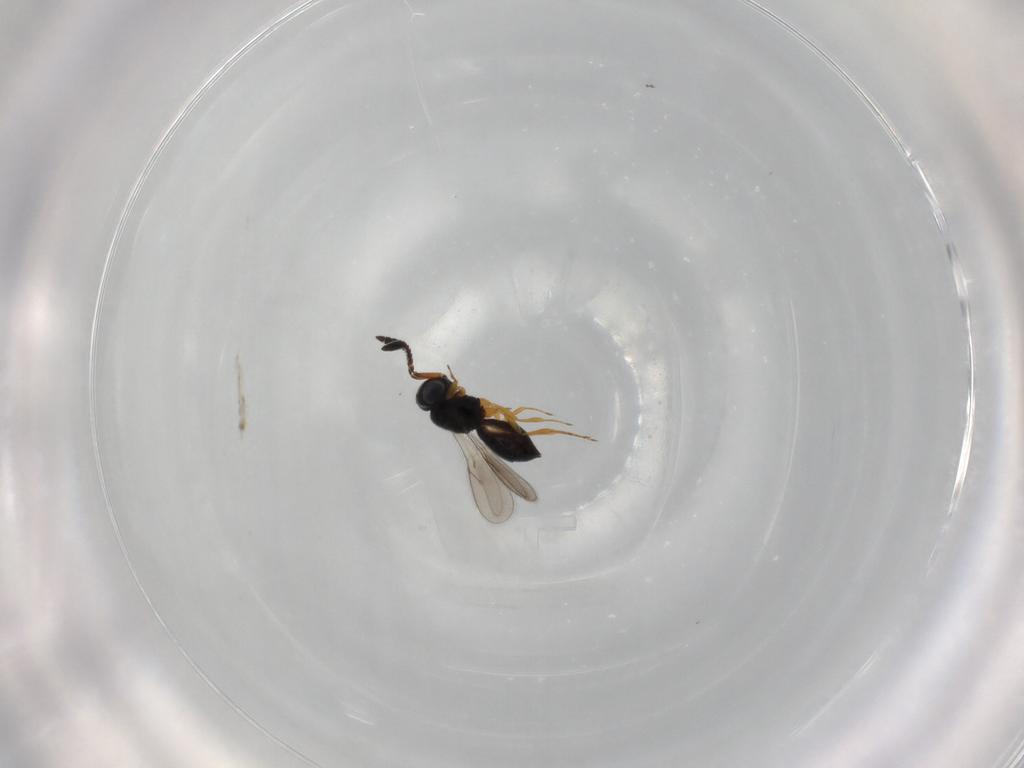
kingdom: Animalia
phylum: Arthropoda
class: Insecta
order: Hymenoptera
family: Scelionidae
